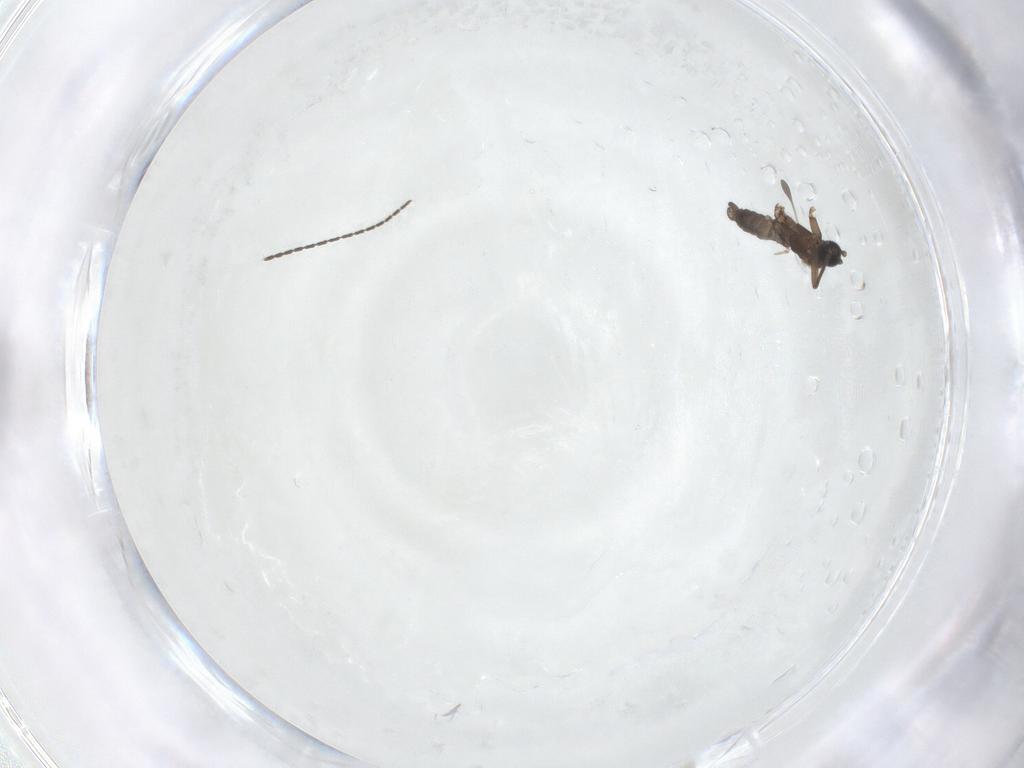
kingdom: Animalia
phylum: Arthropoda
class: Insecta
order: Diptera
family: Sciaridae
